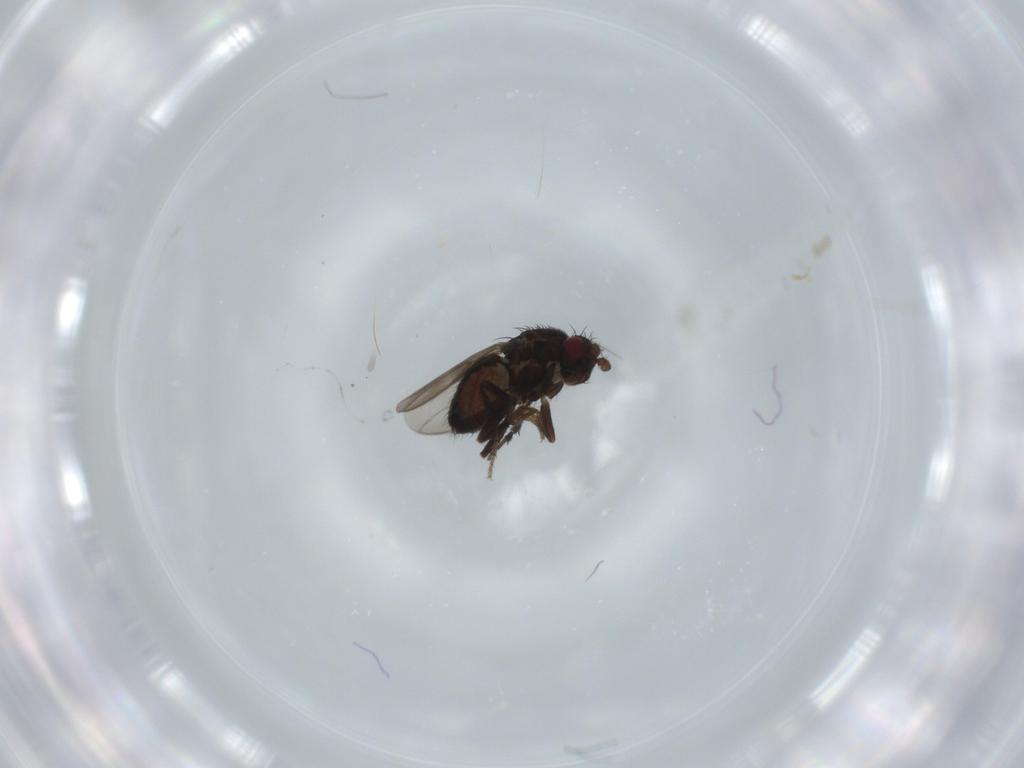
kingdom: Animalia
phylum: Arthropoda
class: Insecta
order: Diptera
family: Sphaeroceridae
